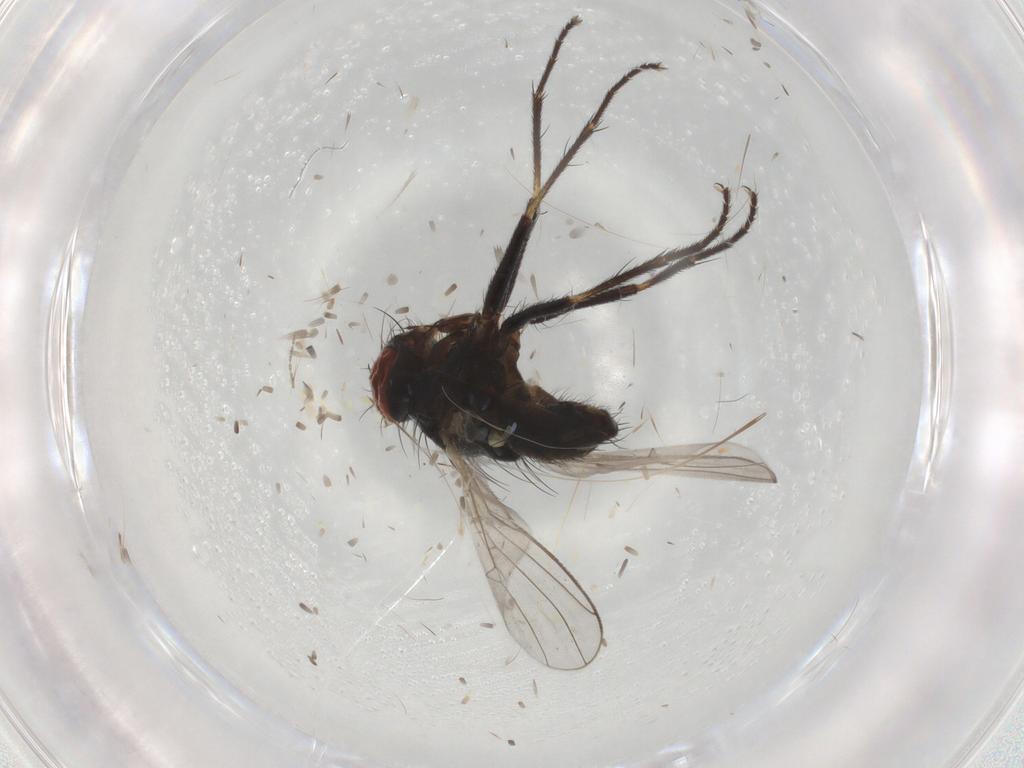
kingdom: Animalia
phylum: Arthropoda
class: Insecta
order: Diptera
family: Muscidae
